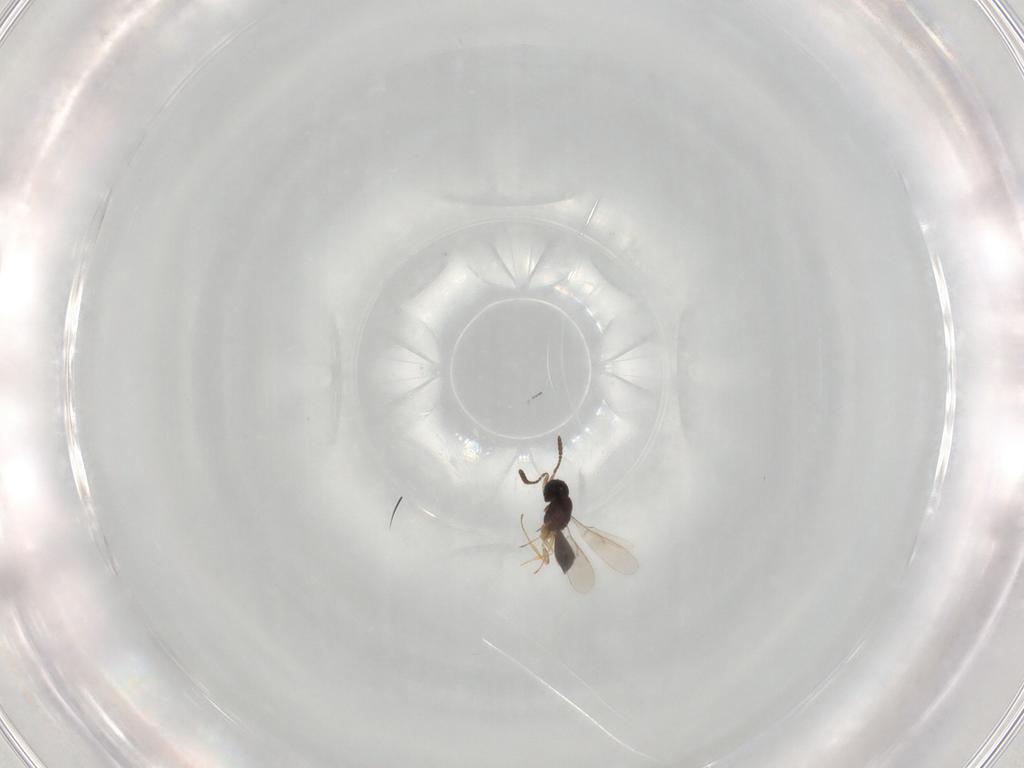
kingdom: Animalia
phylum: Arthropoda
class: Insecta
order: Hymenoptera
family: Scelionidae
